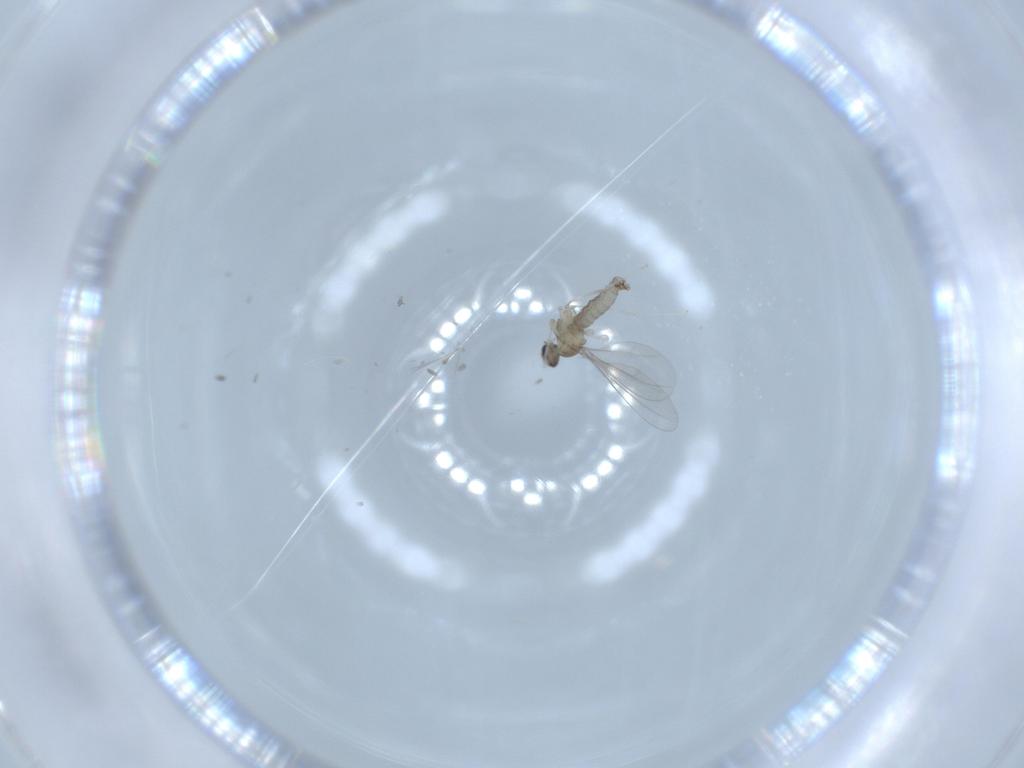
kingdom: Animalia
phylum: Arthropoda
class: Insecta
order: Diptera
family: Cecidomyiidae
